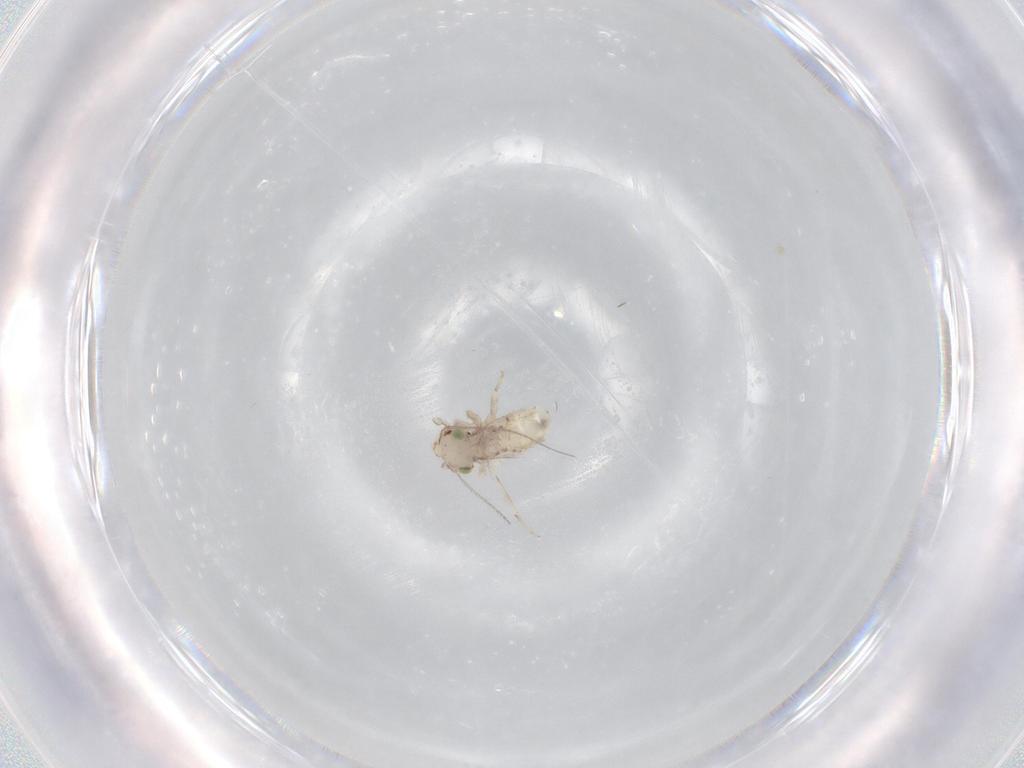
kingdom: Animalia
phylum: Arthropoda
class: Insecta
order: Psocodea
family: Lepidopsocidae
